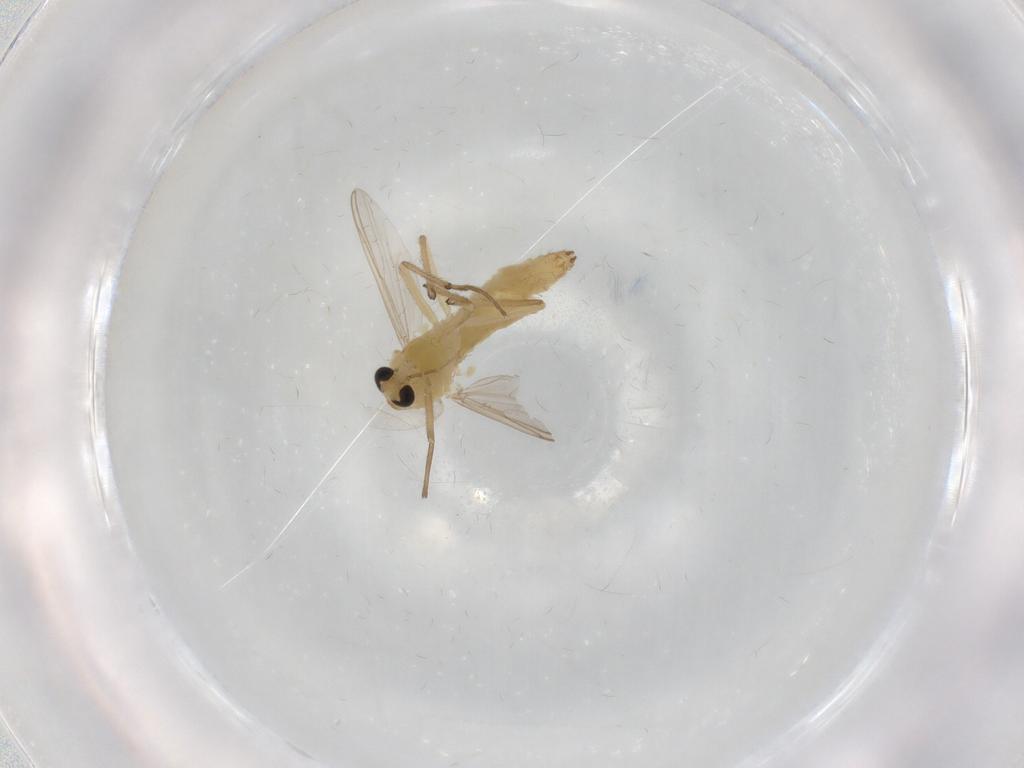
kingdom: Animalia
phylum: Arthropoda
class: Insecta
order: Diptera
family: Chironomidae
